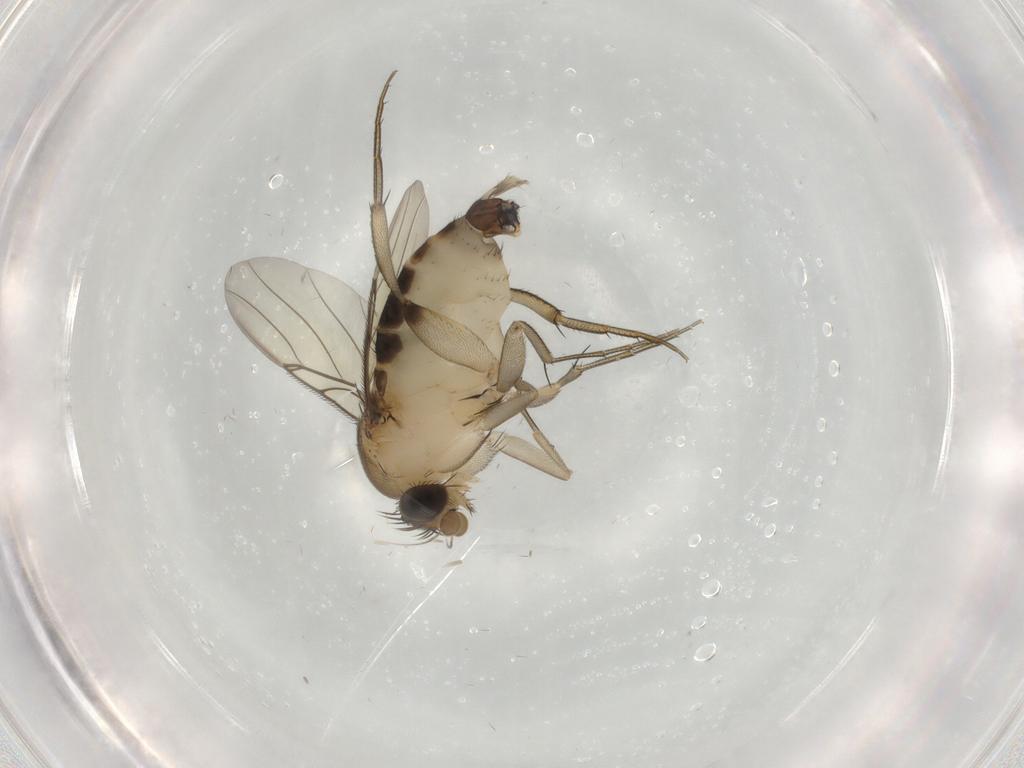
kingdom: Animalia
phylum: Arthropoda
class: Insecta
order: Diptera
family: Phoridae
